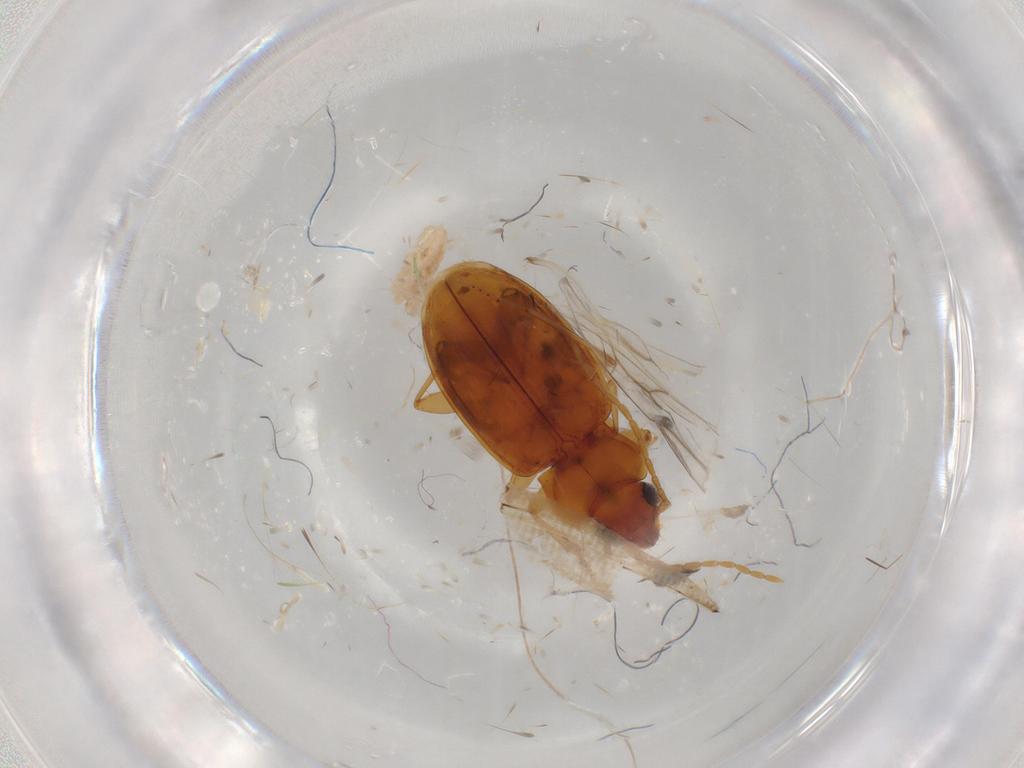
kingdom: Animalia
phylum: Arthropoda
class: Insecta
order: Coleoptera
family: Carabidae
